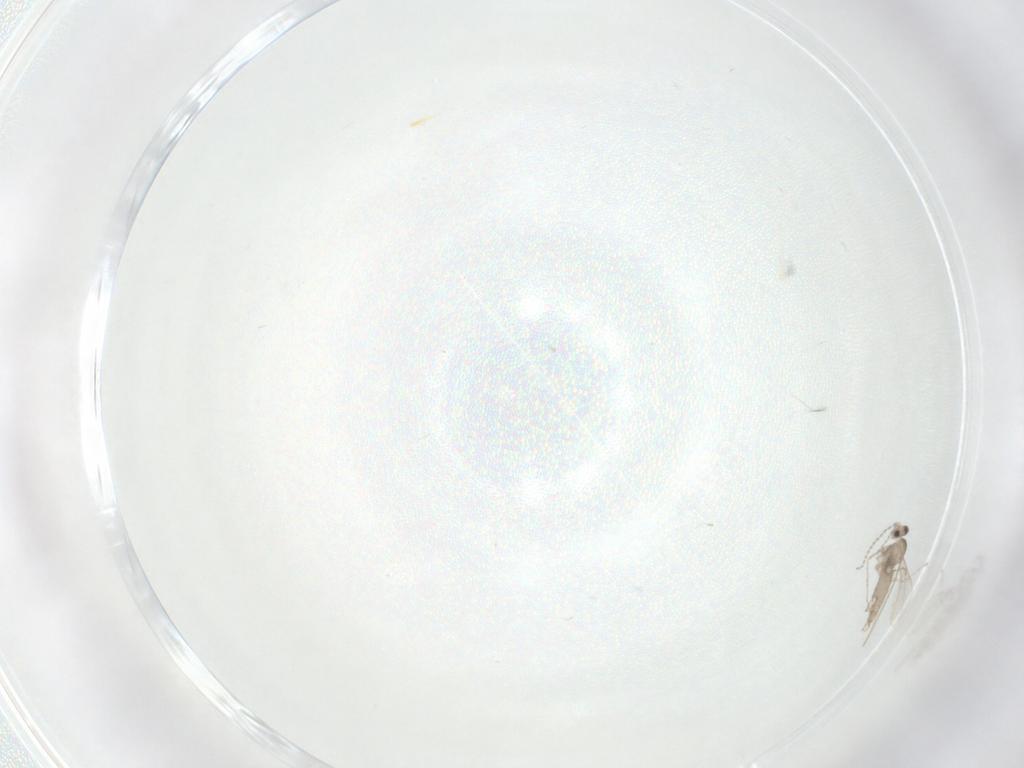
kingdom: Animalia
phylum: Arthropoda
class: Insecta
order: Diptera
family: Cecidomyiidae
